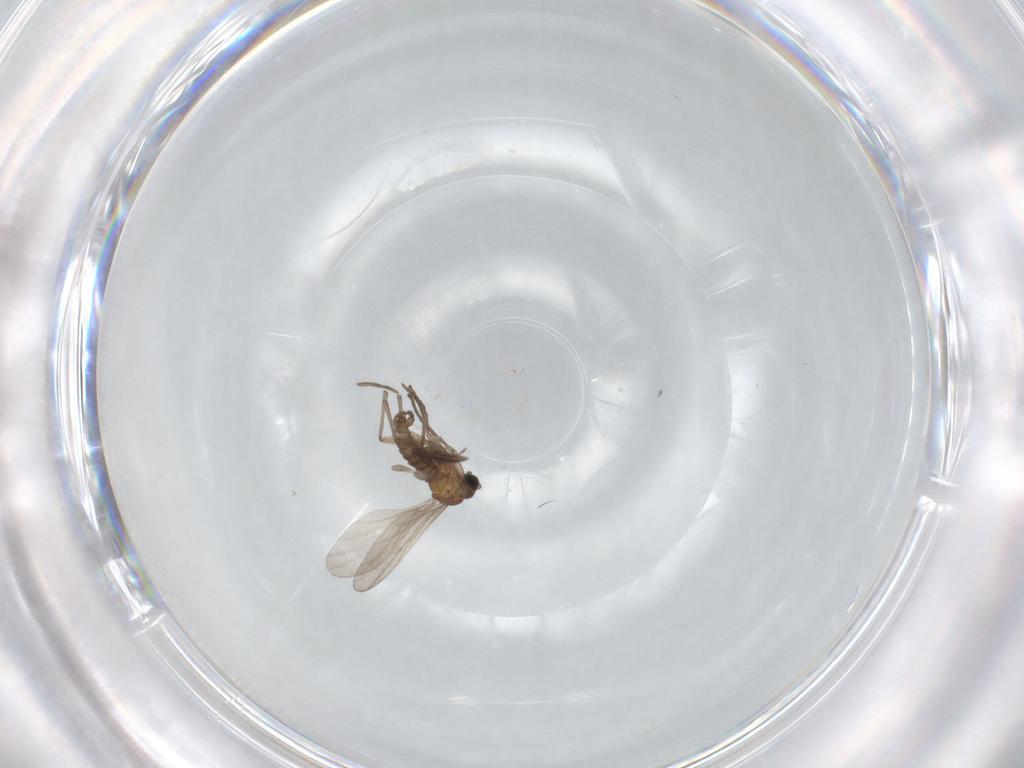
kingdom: Animalia
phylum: Arthropoda
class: Insecta
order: Diptera
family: Sciaridae
